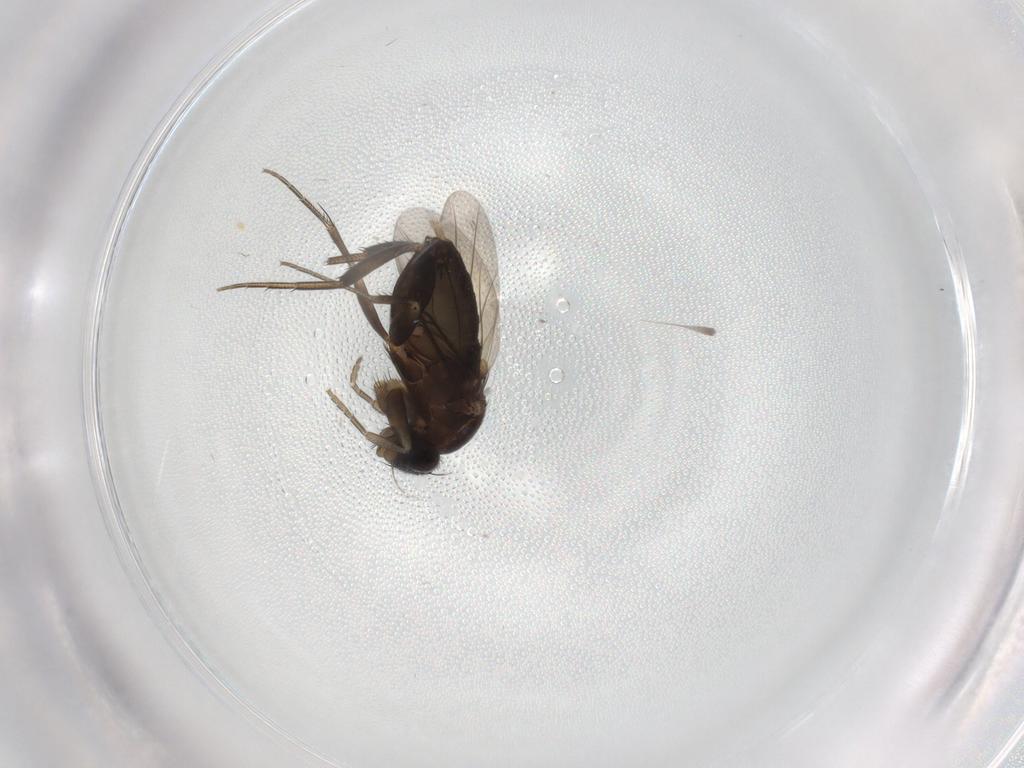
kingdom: Animalia
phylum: Arthropoda
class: Insecta
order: Diptera
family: Phoridae
